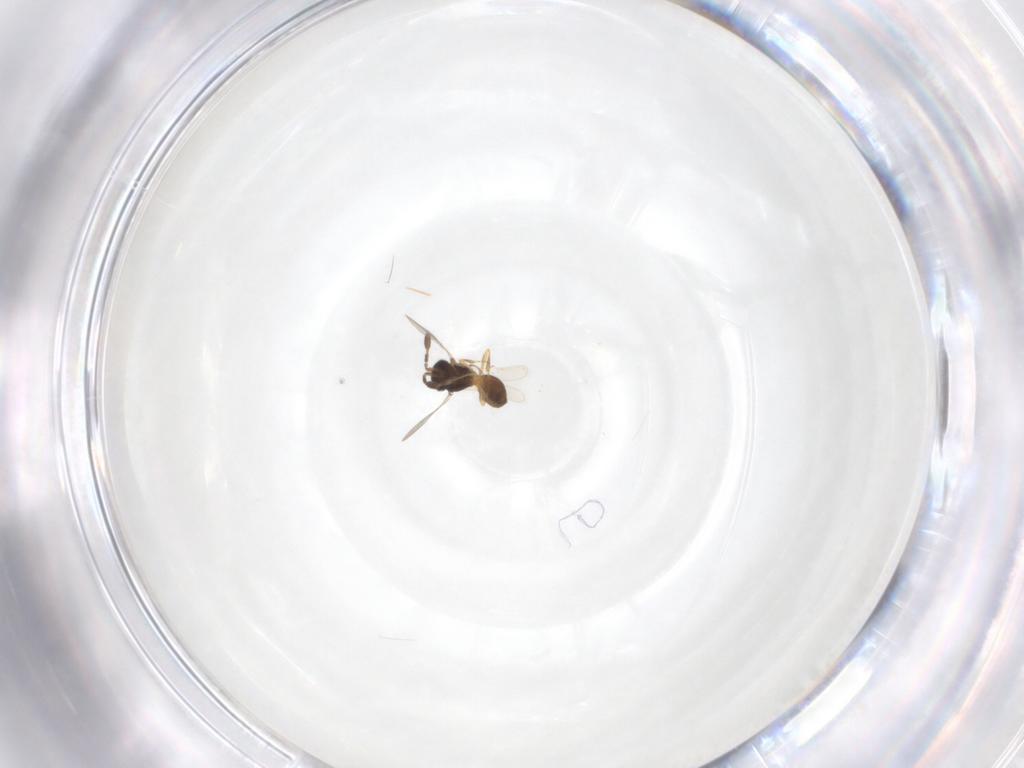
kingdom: Animalia
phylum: Arthropoda
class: Insecta
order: Hymenoptera
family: Scelionidae
